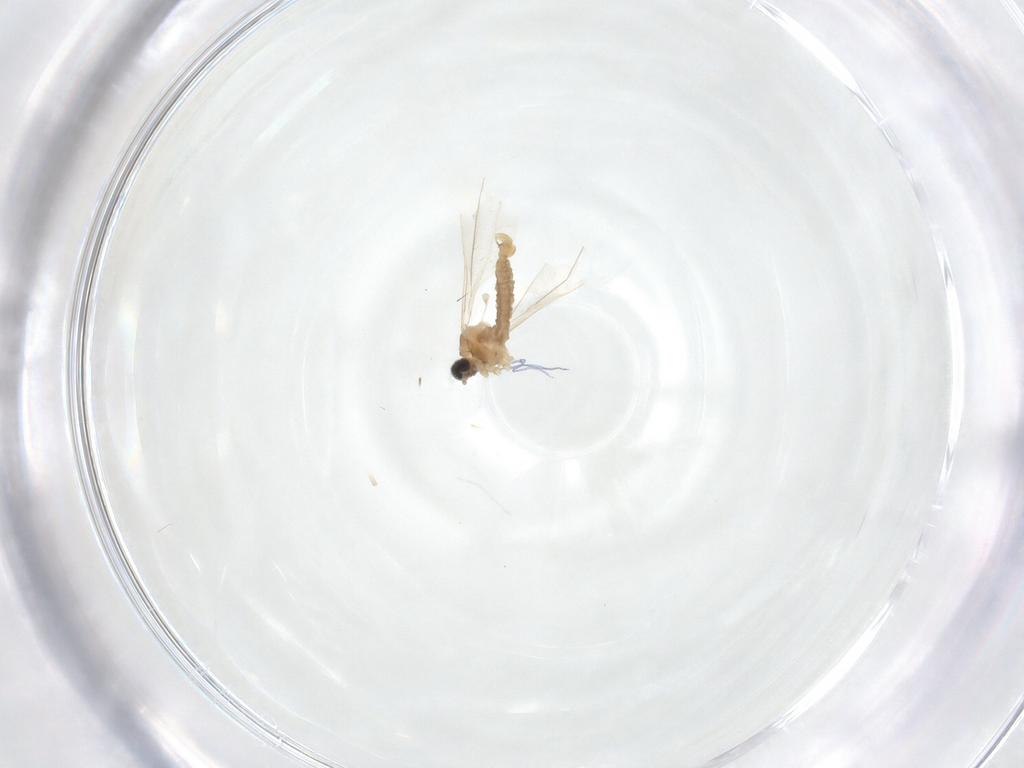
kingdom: Animalia
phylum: Arthropoda
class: Insecta
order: Diptera
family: Cecidomyiidae
